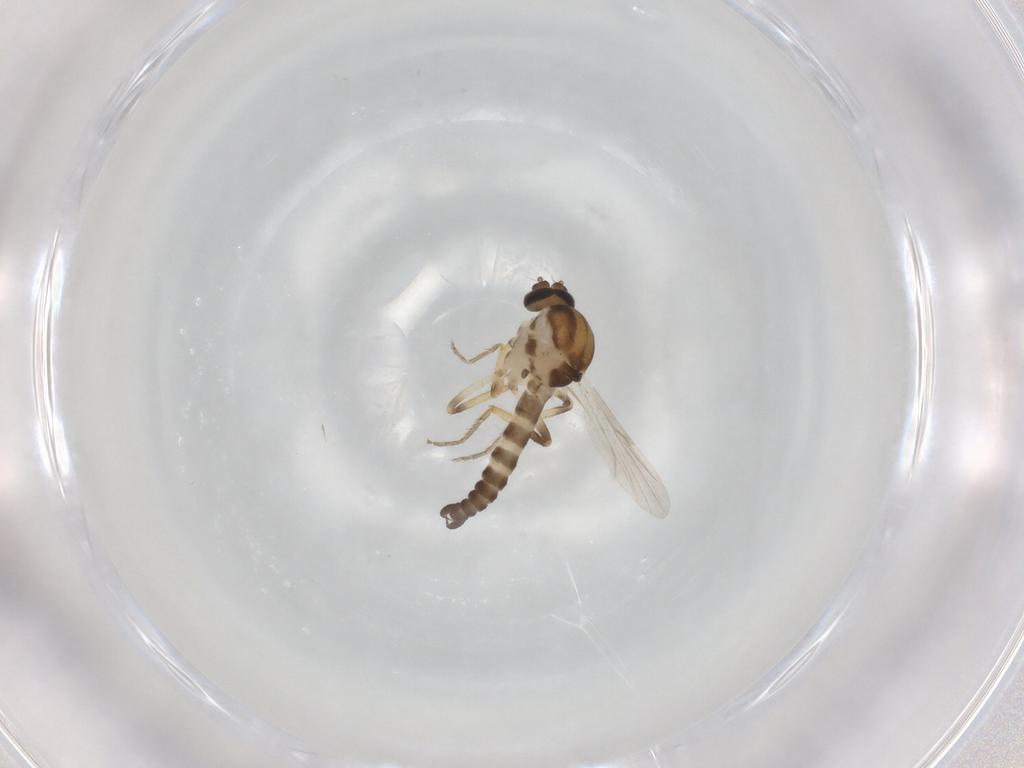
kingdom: Animalia
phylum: Arthropoda
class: Insecta
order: Diptera
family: Ceratopogonidae
